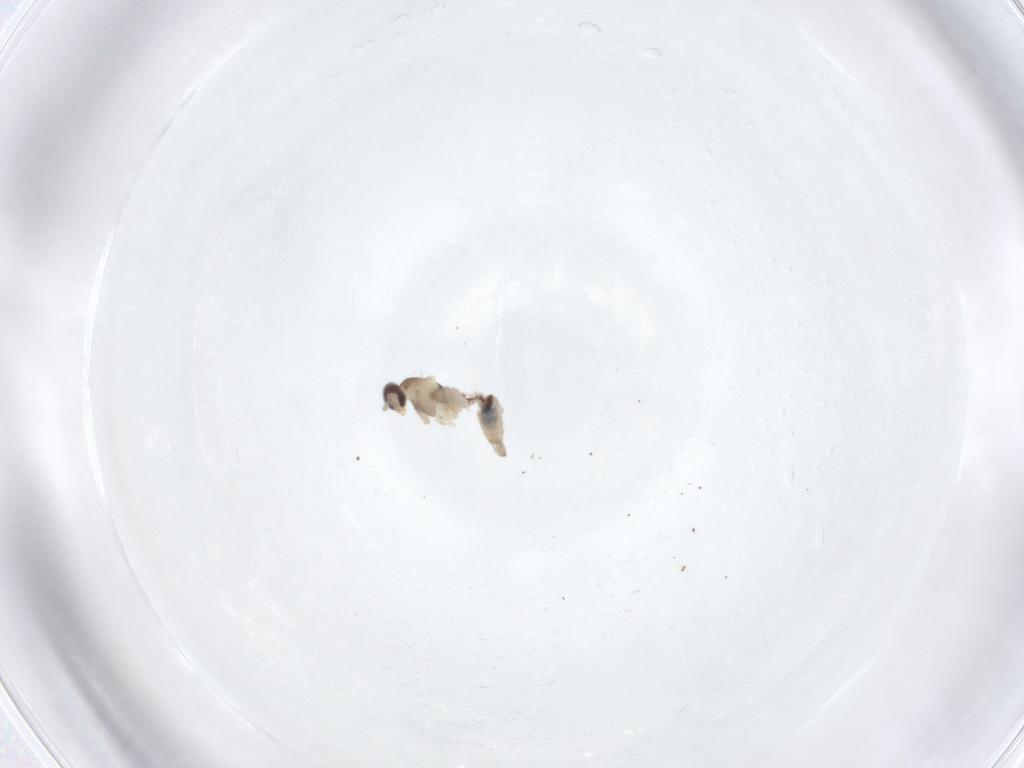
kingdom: Animalia
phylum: Arthropoda
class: Insecta
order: Diptera
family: Cecidomyiidae
